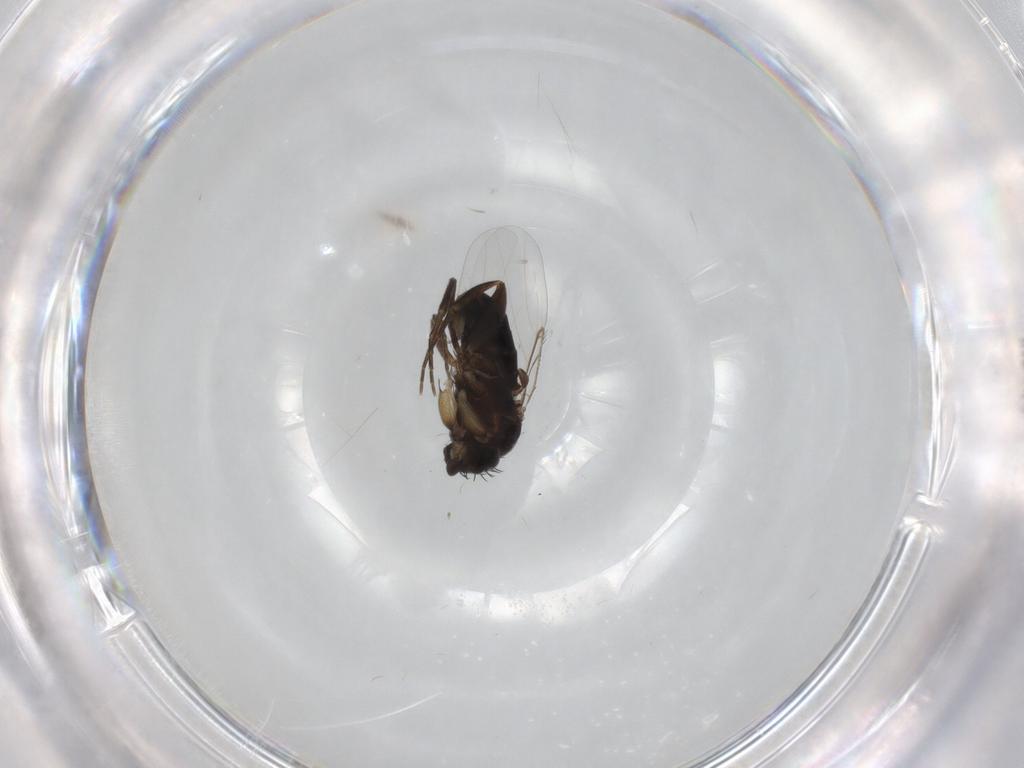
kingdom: Animalia
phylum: Arthropoda
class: Insecta
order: Diptera
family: Phoridae
